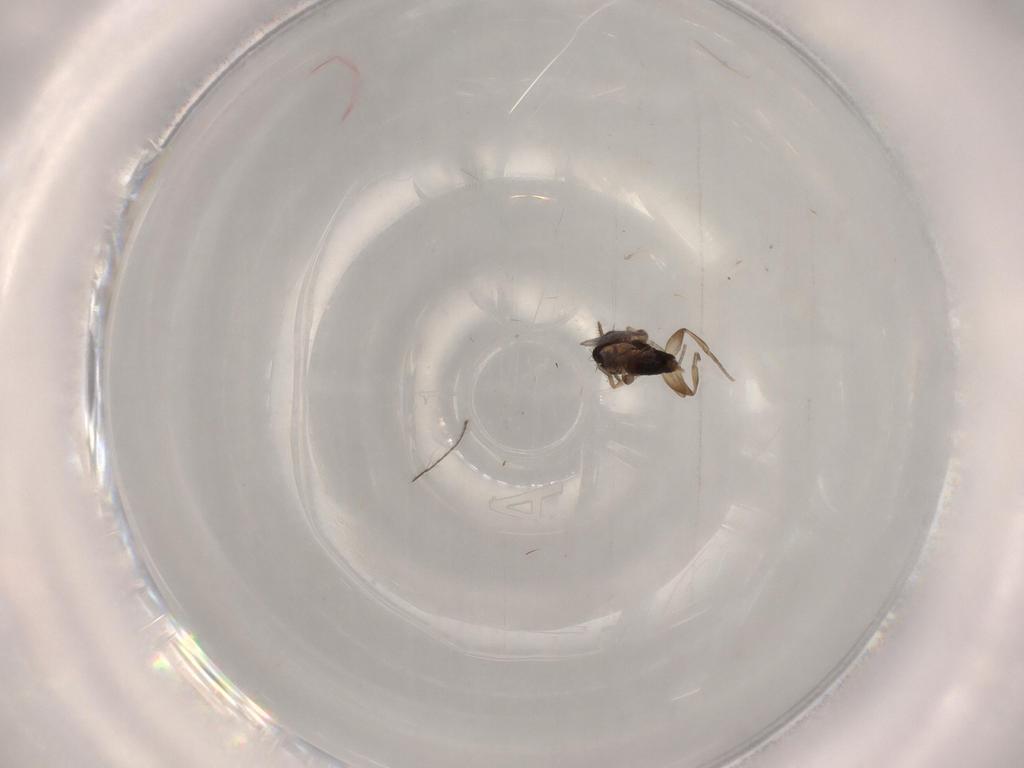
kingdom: Animalia
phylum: Arthropoda
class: Insecta
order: Diptera
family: Phoridae
